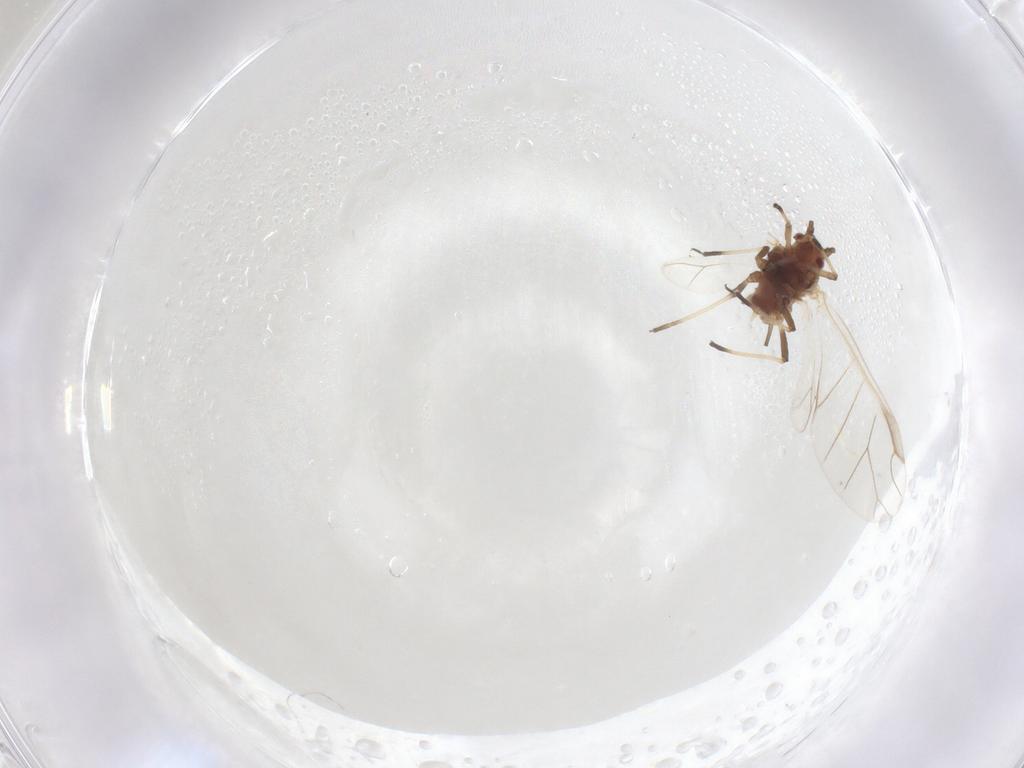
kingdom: Animalia
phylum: Arthropoda
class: Insecta
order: Hemiptera
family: Aphididae
